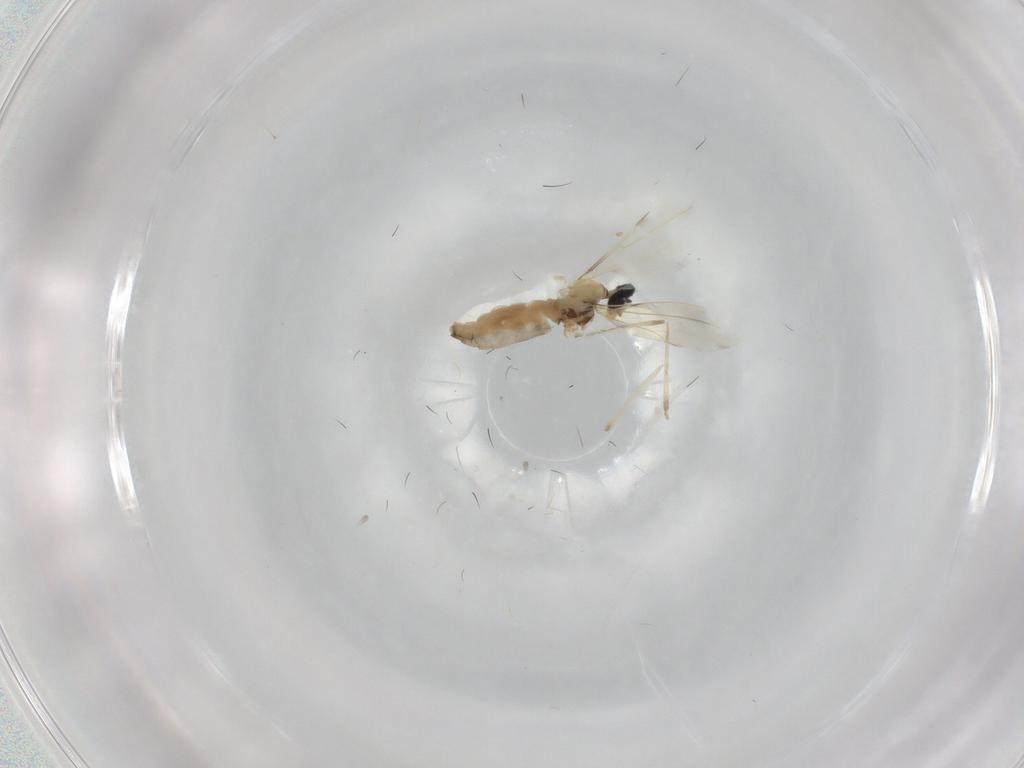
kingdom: Animalia
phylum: Arthropoda
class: Insecta
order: Diptera
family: Cecidomyiidae
